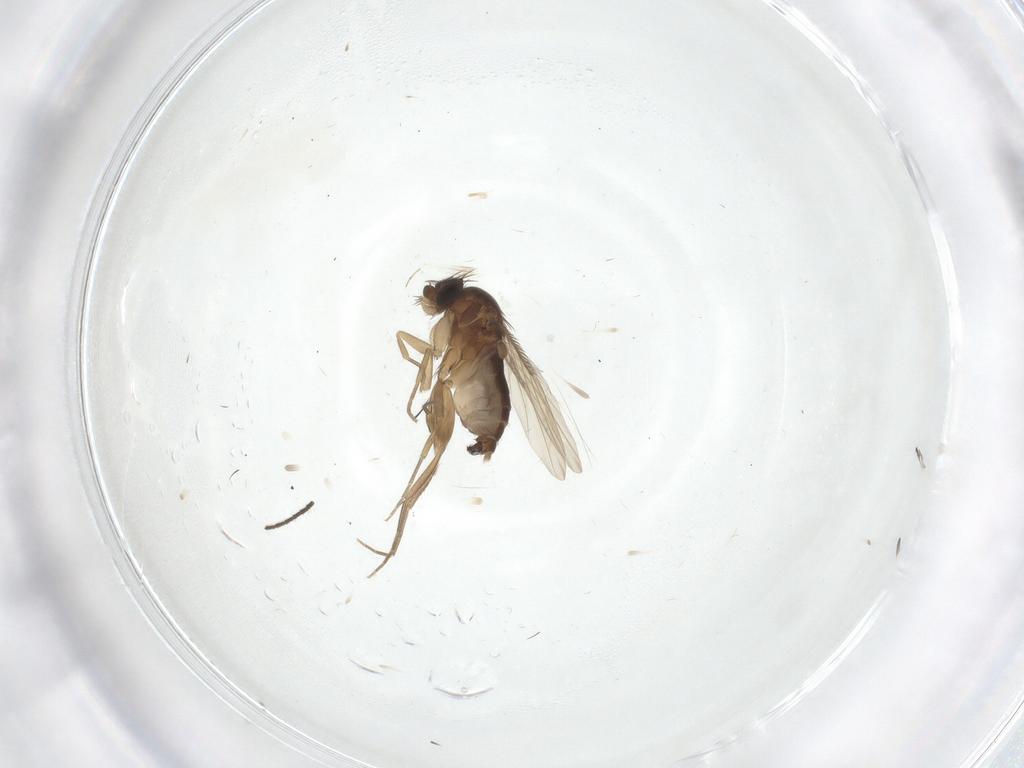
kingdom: Animalia
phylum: Arthropoda
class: Insecta
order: Diptera
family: Phoridae
